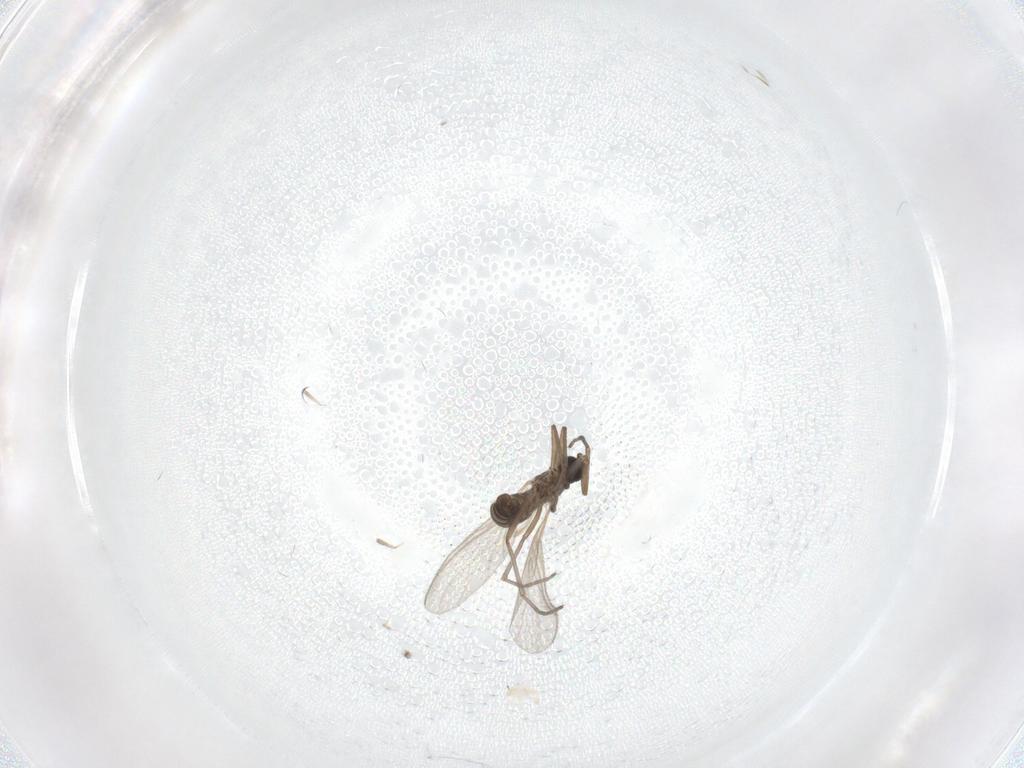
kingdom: Animalia
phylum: Arthropoda
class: Insecta
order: Diptera
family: Sciaridae
